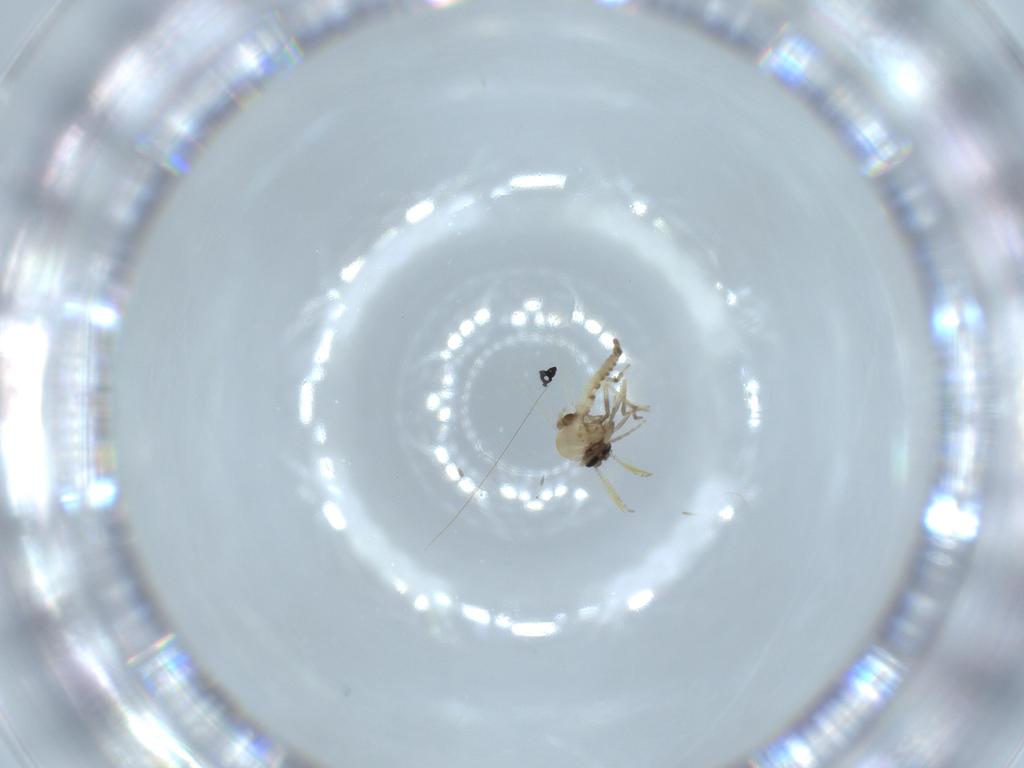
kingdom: Animalia
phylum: Arthropoda
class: Insecta
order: Diptera
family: Ceratopogonidae
